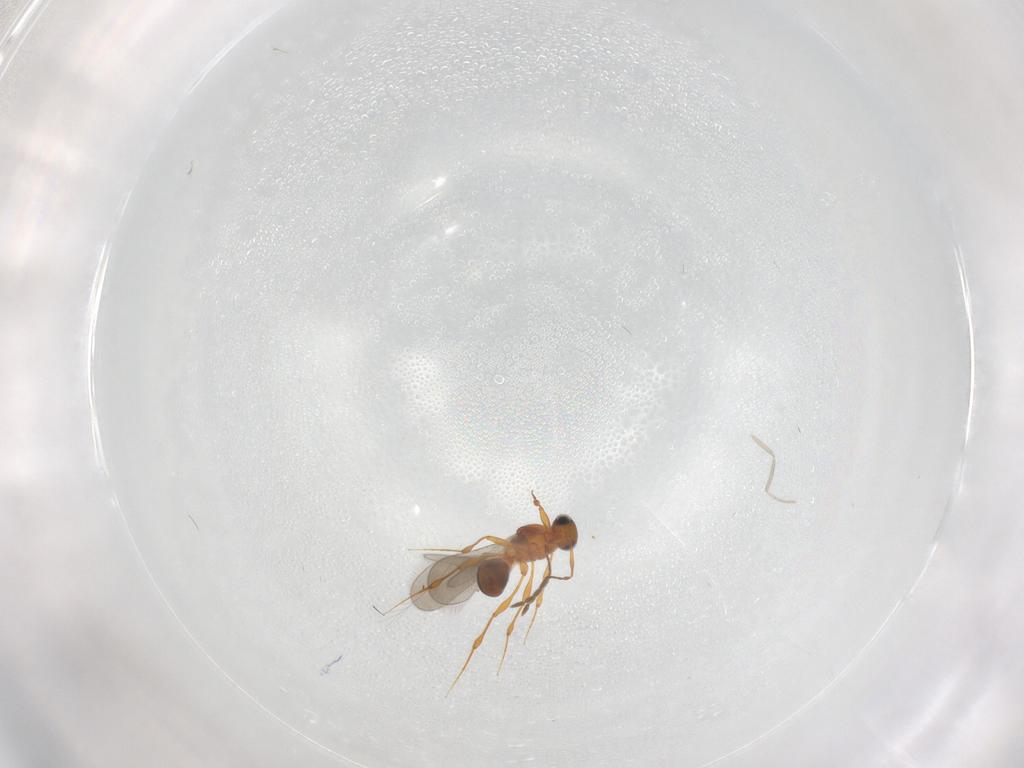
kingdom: Animalia
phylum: Arthropoda
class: Insecta
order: Hymenoptera
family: Platygastridae
